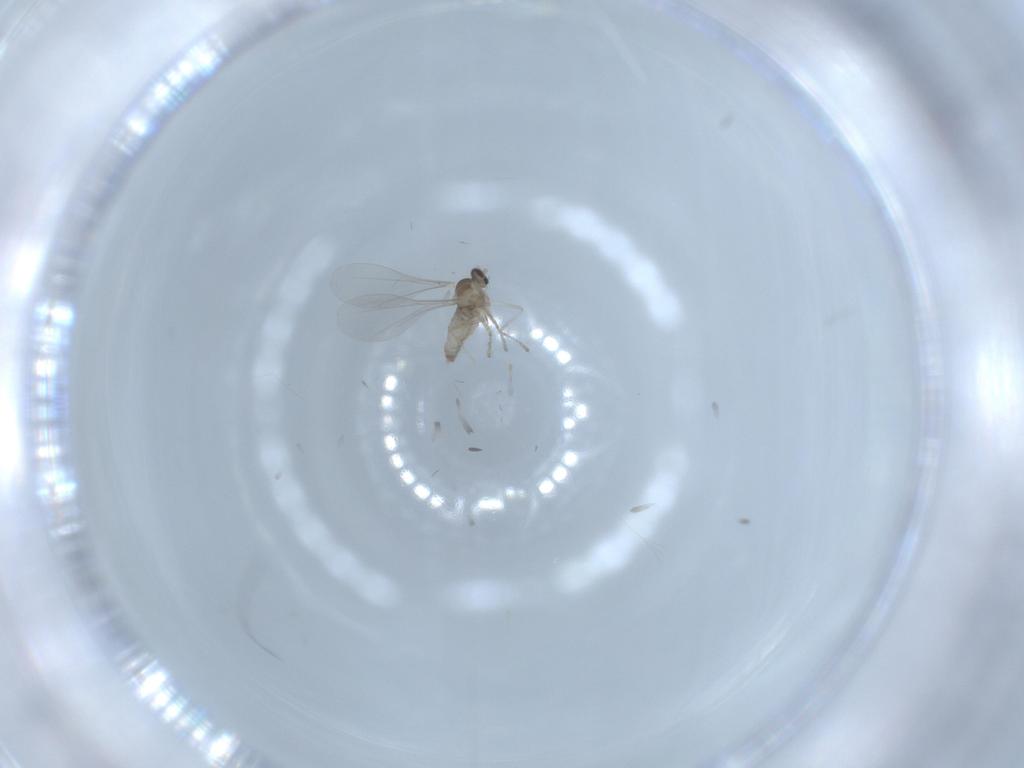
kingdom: Animalia
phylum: Arthropoda
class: Insecta
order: Diptera
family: Cecidomyiidae
